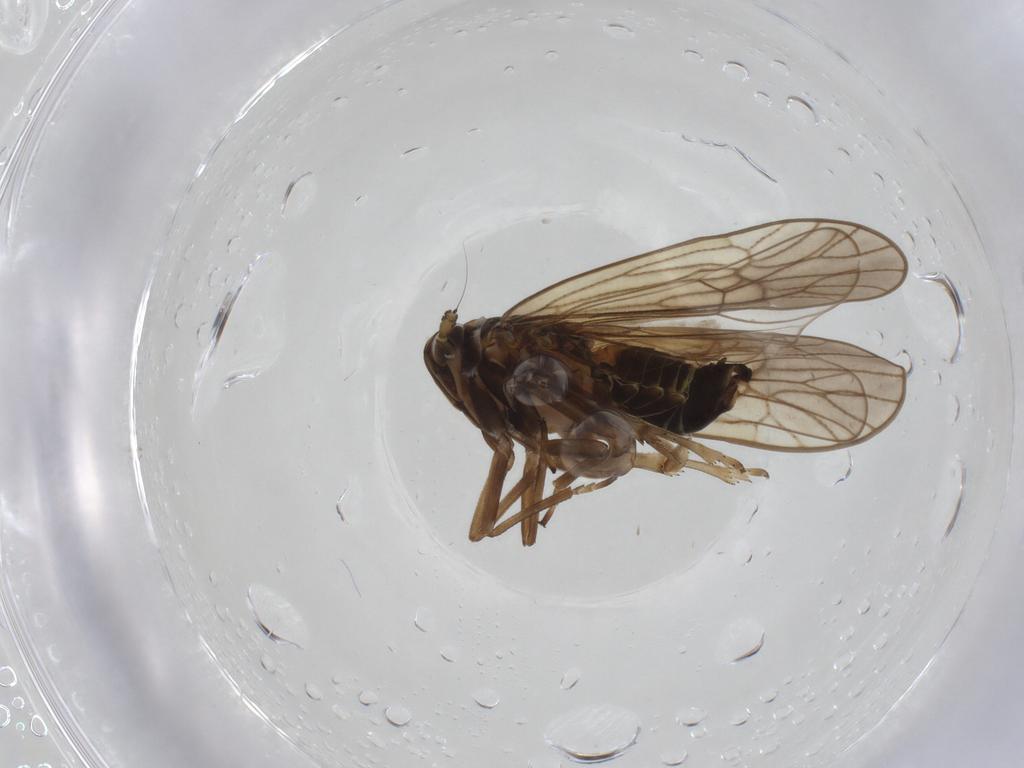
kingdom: Animalia
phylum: Arthropoda
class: Insecta
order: Hemiptera
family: Delphacidae
